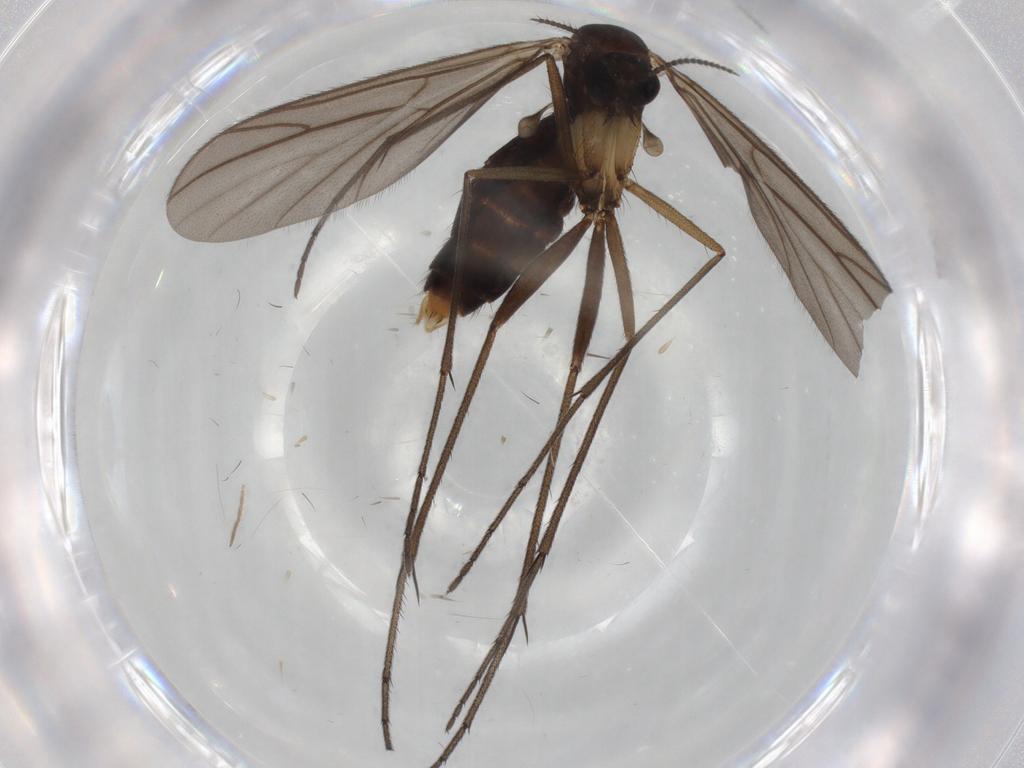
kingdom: Animalia
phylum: Arthropoda
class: Insecta
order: Diptera
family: Ditomyiidae
